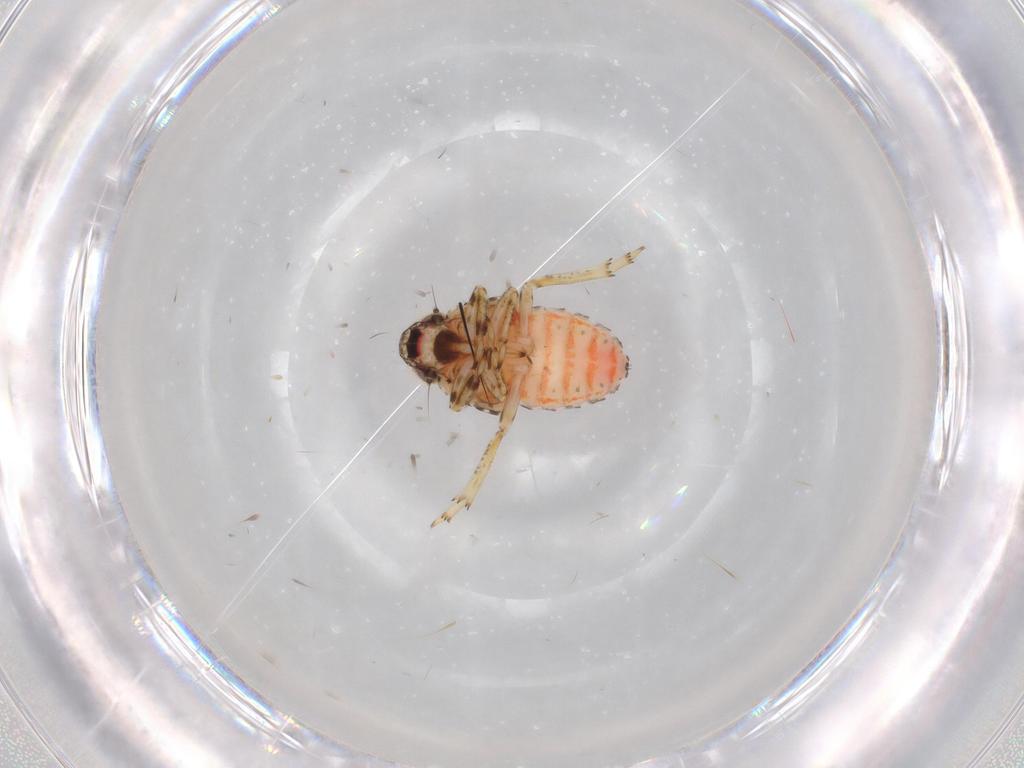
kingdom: Animalia
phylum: Arthropoda
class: Insecta
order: Hemiptera
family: Issidae
